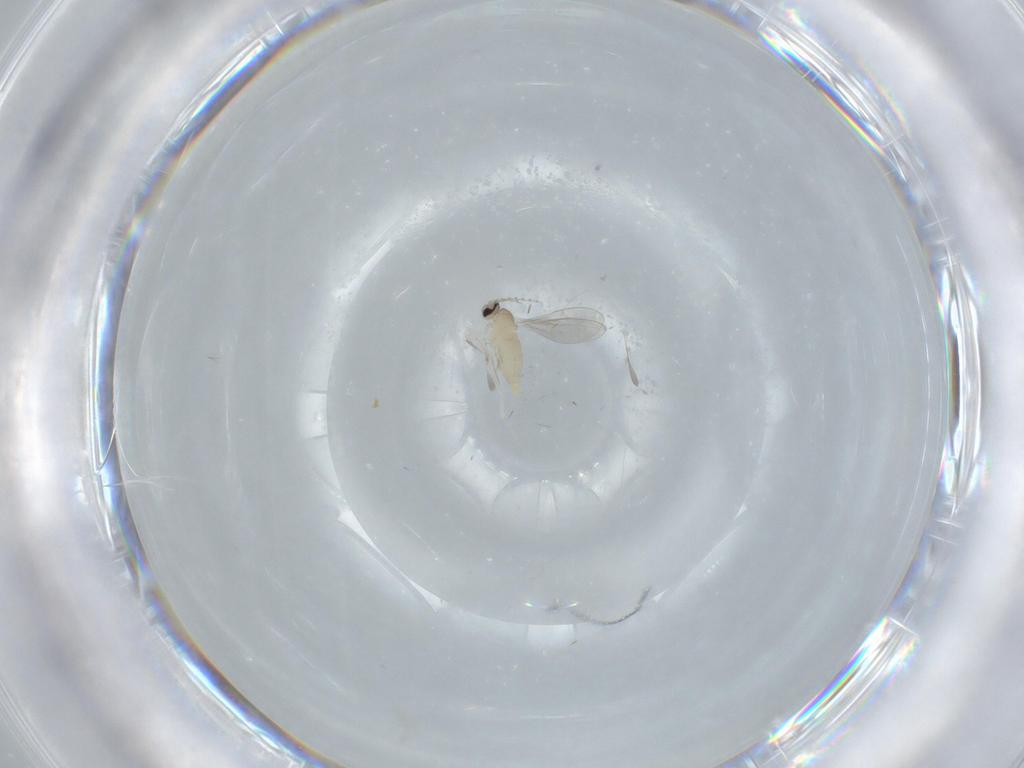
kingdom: Animalia
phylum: Arthropoda
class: Insecta
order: Diptera
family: Cecidomyiidae
